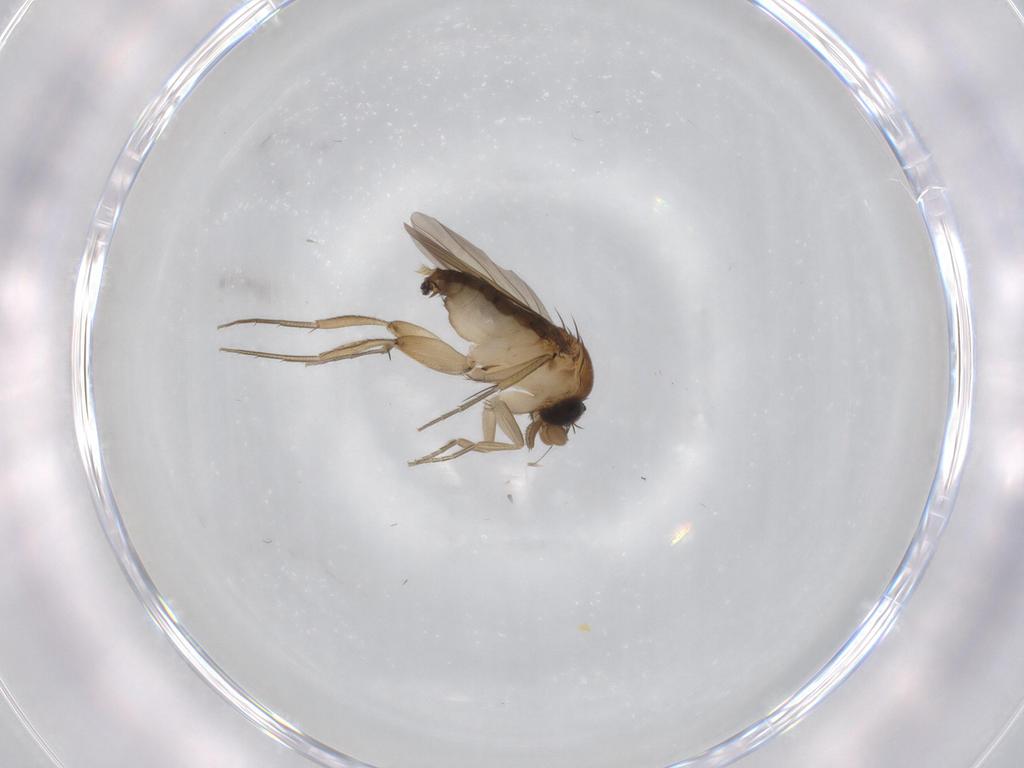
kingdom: Animalia
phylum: Arthropoda
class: Insecta
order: Diptera
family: Phoridae
